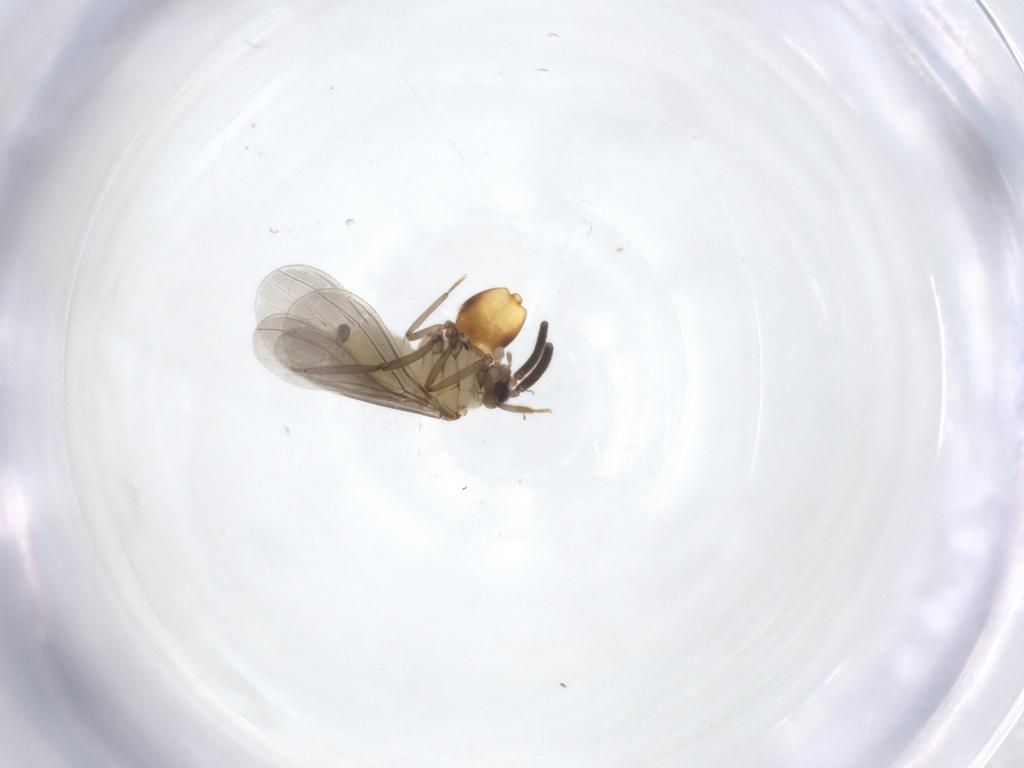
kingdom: Animalia
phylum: Arthropoda
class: Insecta
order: Neuroptera
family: Coniopterygidae
